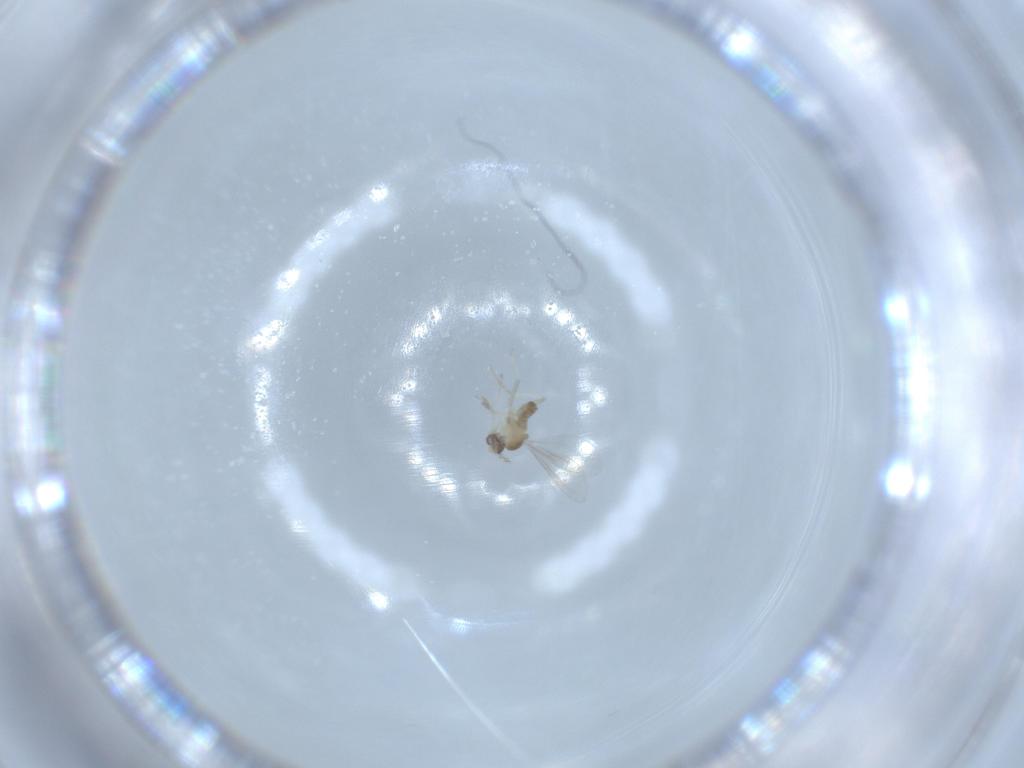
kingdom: Animalia
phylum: Arthropoda
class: Insecta
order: Diptera
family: Cecidomyiidae
